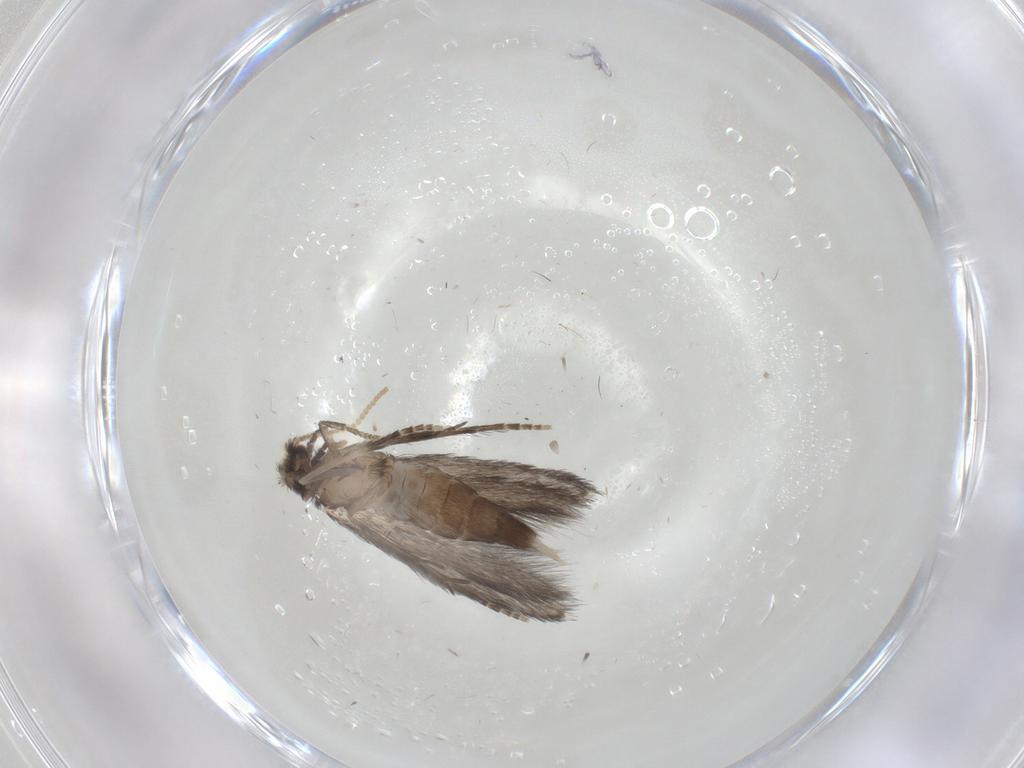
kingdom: Animalia
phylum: Arthropoda
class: Insecta
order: Trichoptera
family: Hydroptilidae
